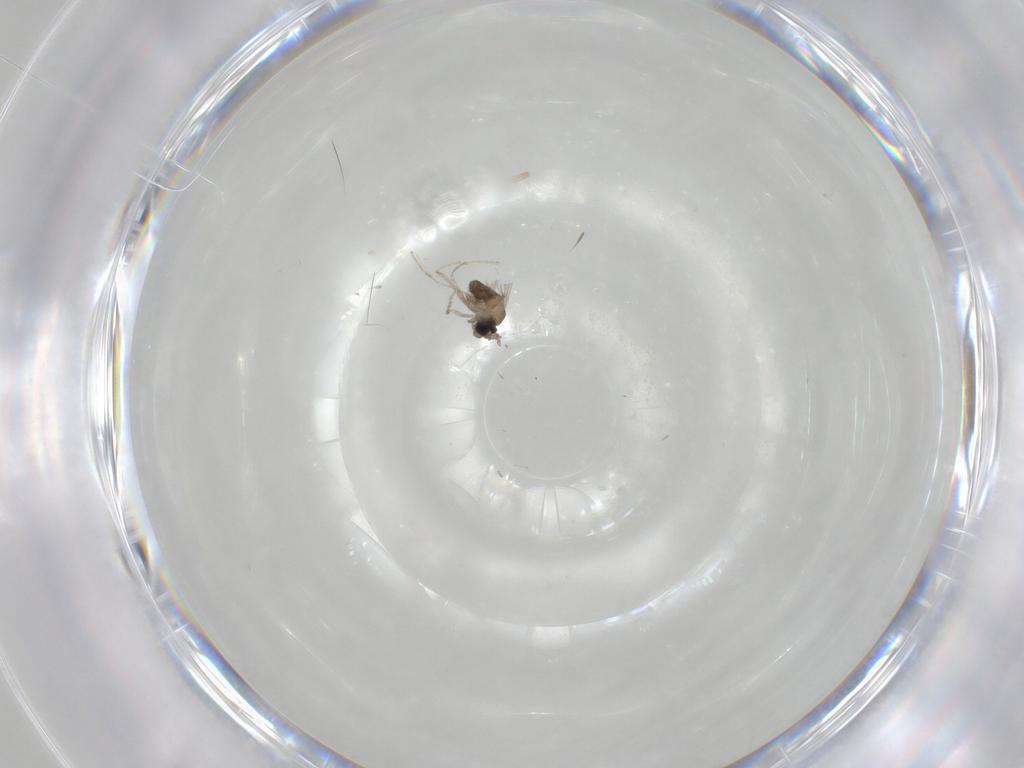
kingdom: Animalia
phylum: Arthropoda
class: Insecta
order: Diptera
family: Cecidomyiidae
